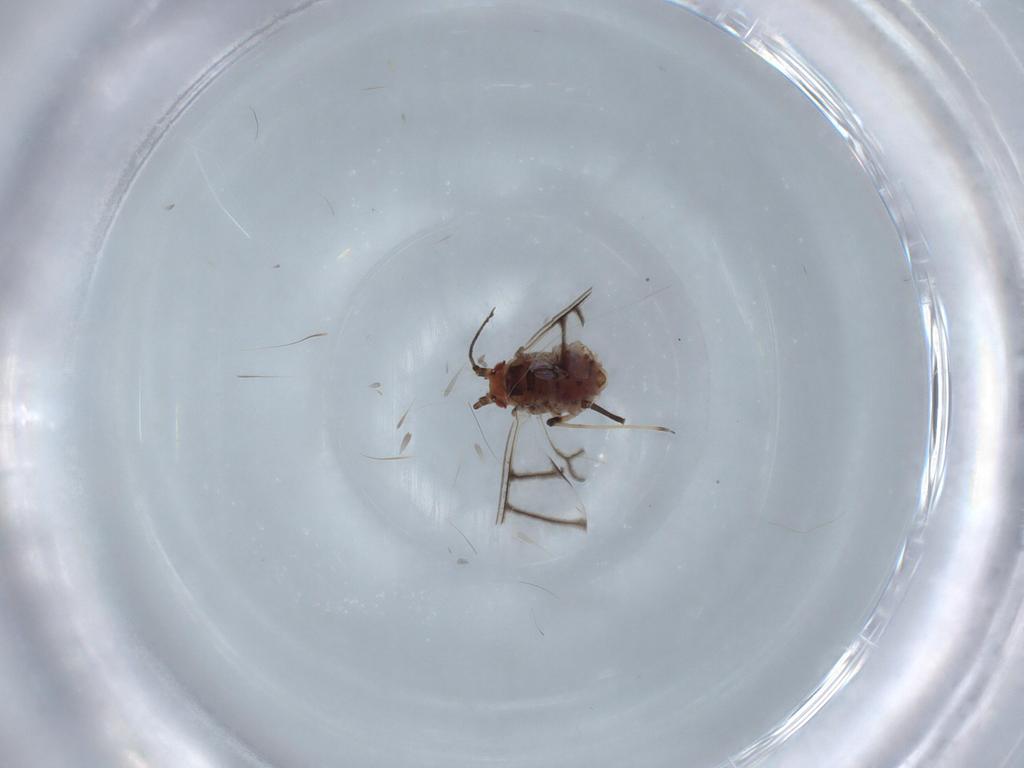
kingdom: Animalia
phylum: Arthropoda
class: Insecta
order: Hemiptera
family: Aphididae
